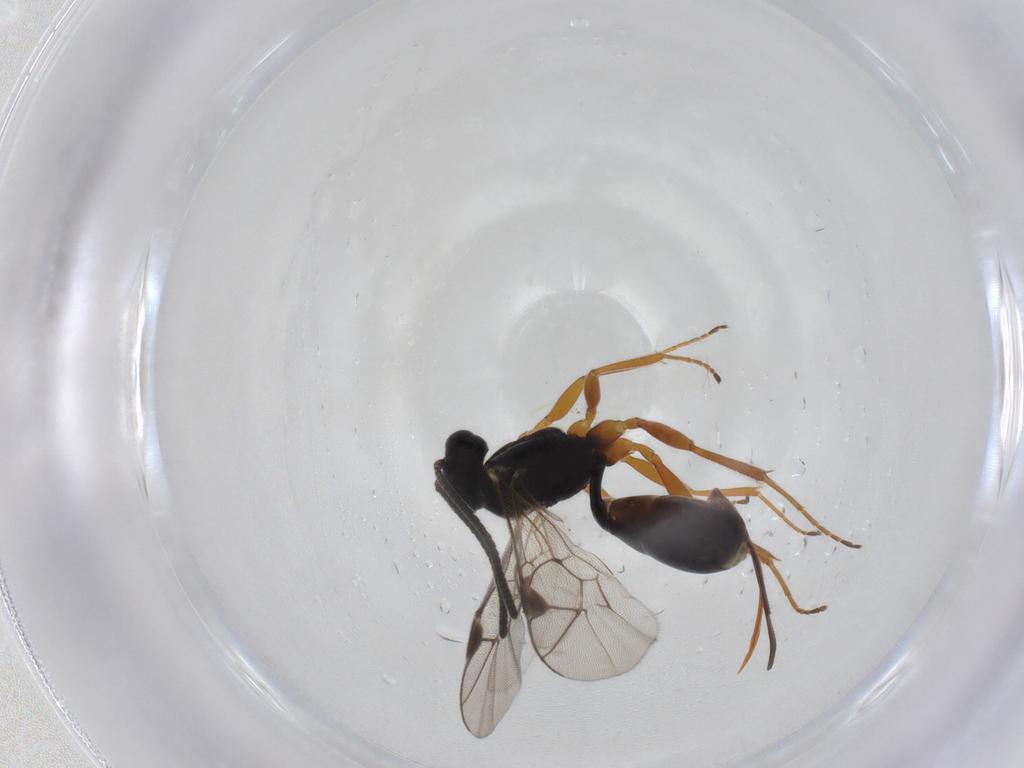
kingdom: Animalia
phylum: Arthropoda
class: Insecta
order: Hymenoptera
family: Ichneumonidae
